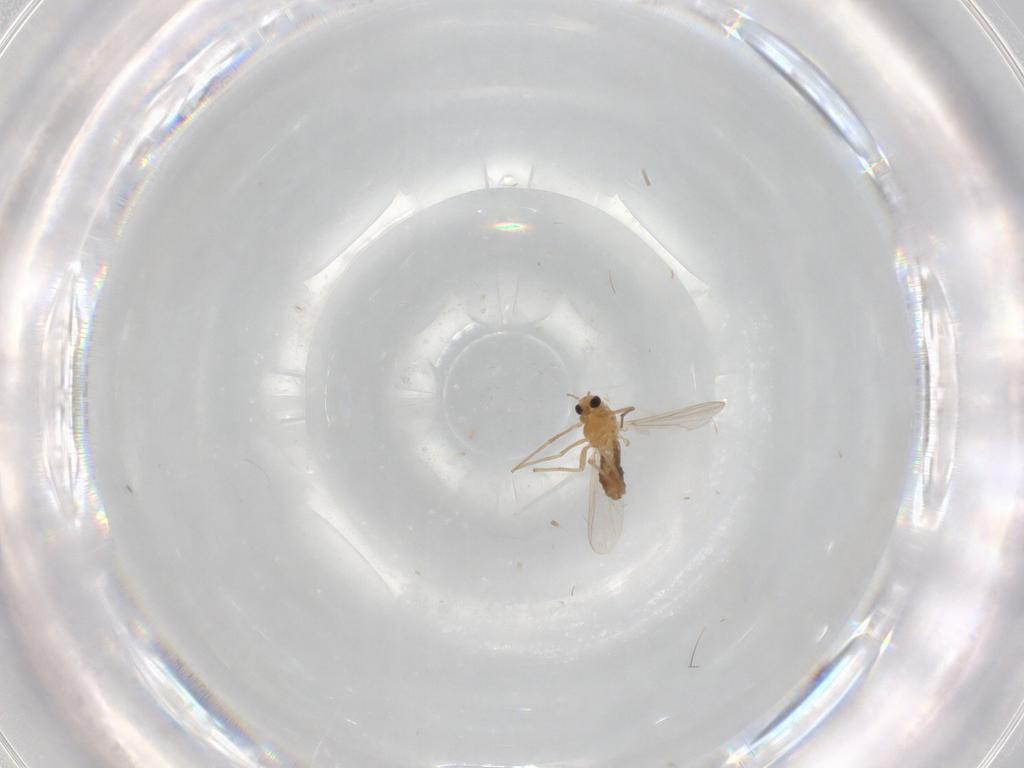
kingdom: Animalia
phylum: Arthropoda
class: Insecta
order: Diptera
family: Chironomidae
